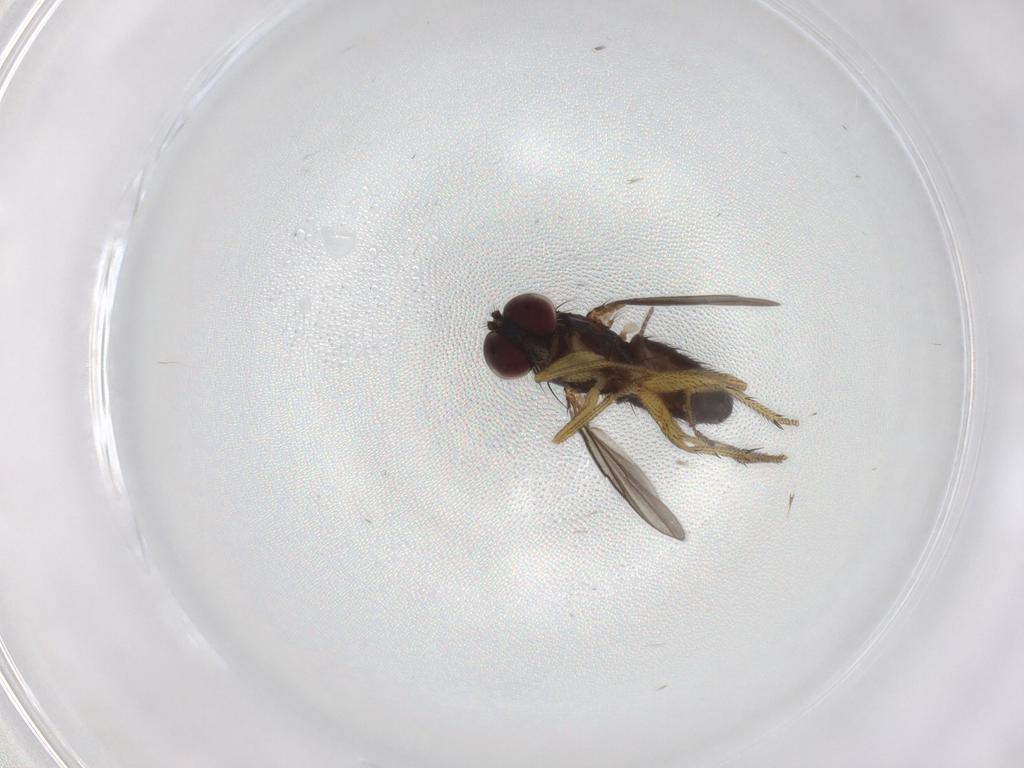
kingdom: Animalia
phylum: Arthropoda
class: Insecta
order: Diptera
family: Sciaridae
